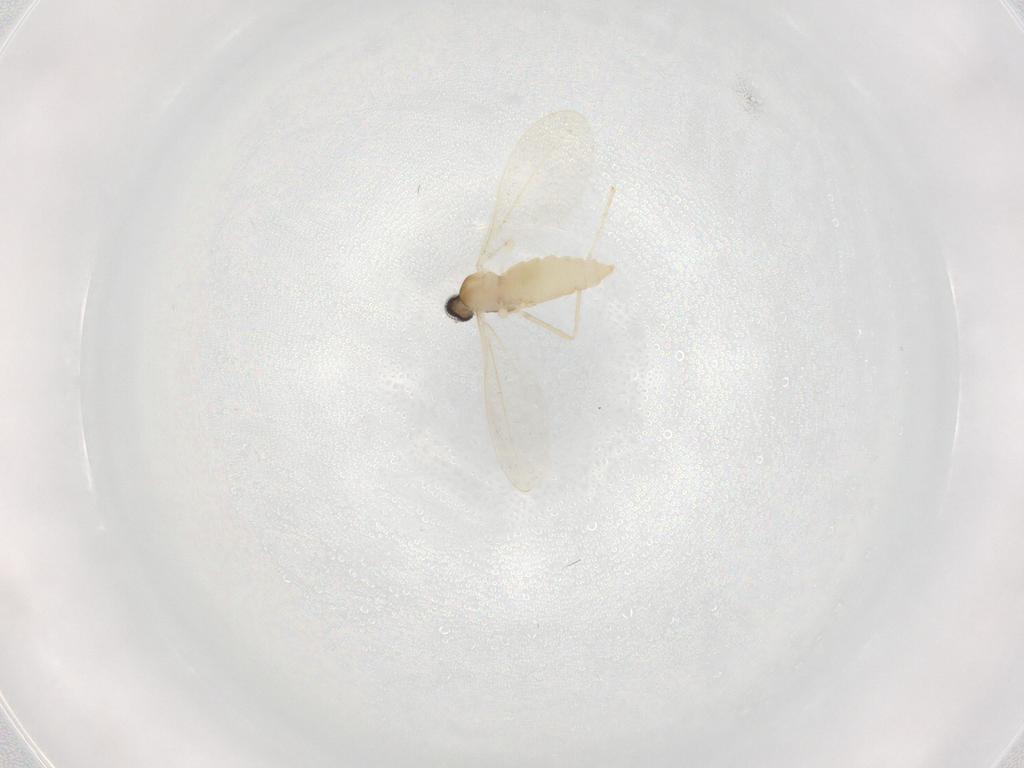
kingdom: Animalia
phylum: Arthropoda
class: Insecta
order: Diptera
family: Cecidomyiidae
